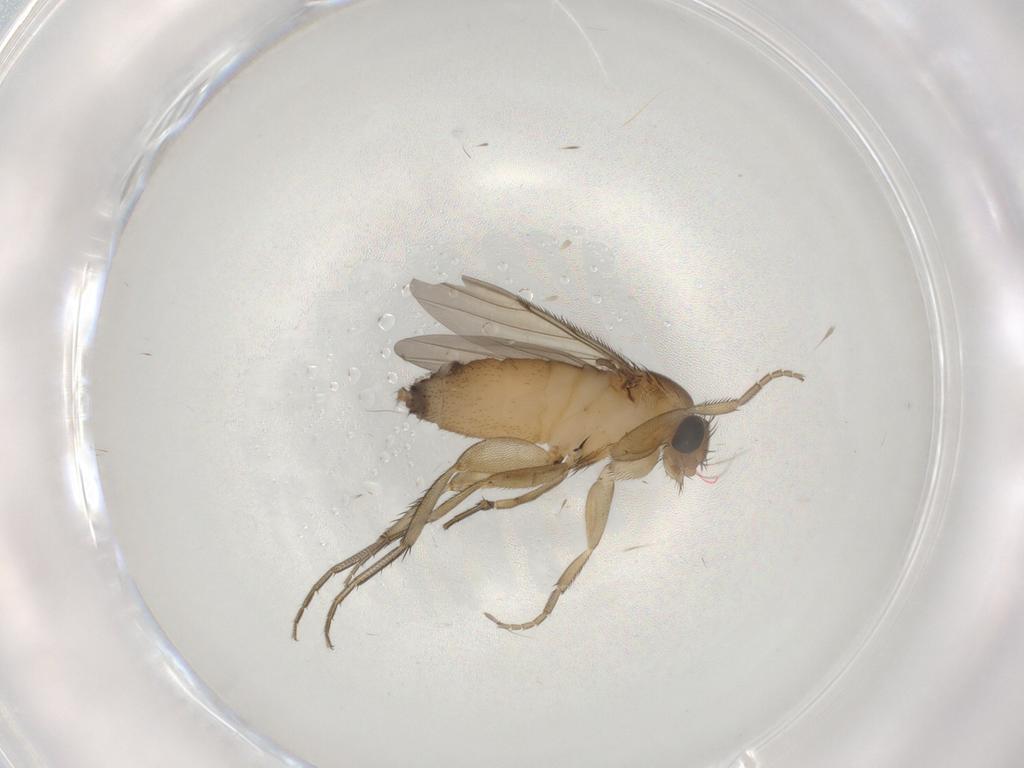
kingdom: Animalia
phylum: Arthropoda
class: Insecta
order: Diptera
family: Phoridae
